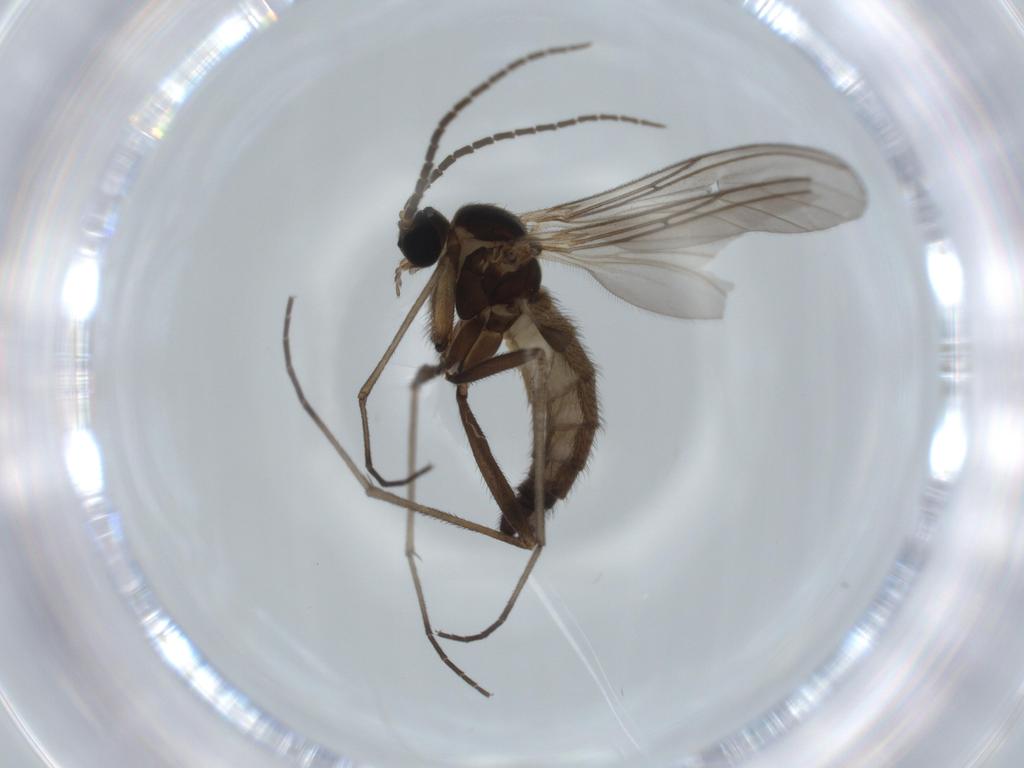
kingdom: Animalia
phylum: Arthropoda
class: Insecta
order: Diptera
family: Sciaridae
